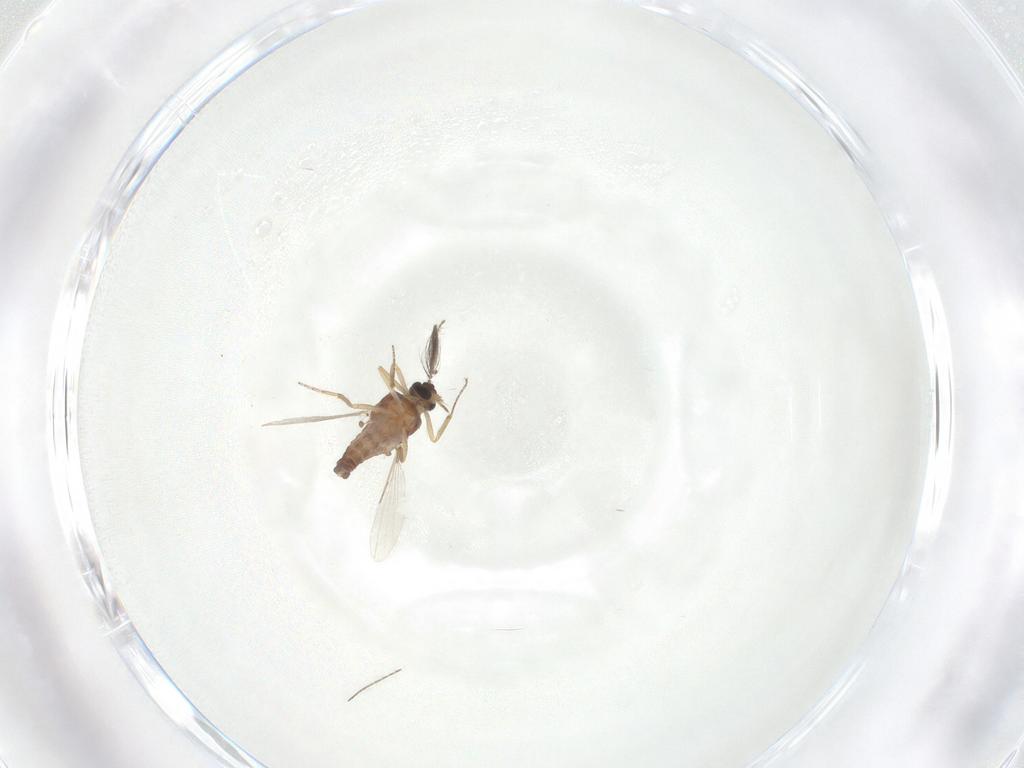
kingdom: Animalia
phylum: Arthropoda
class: Insecta
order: Diptera
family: Ceratopogonidae
